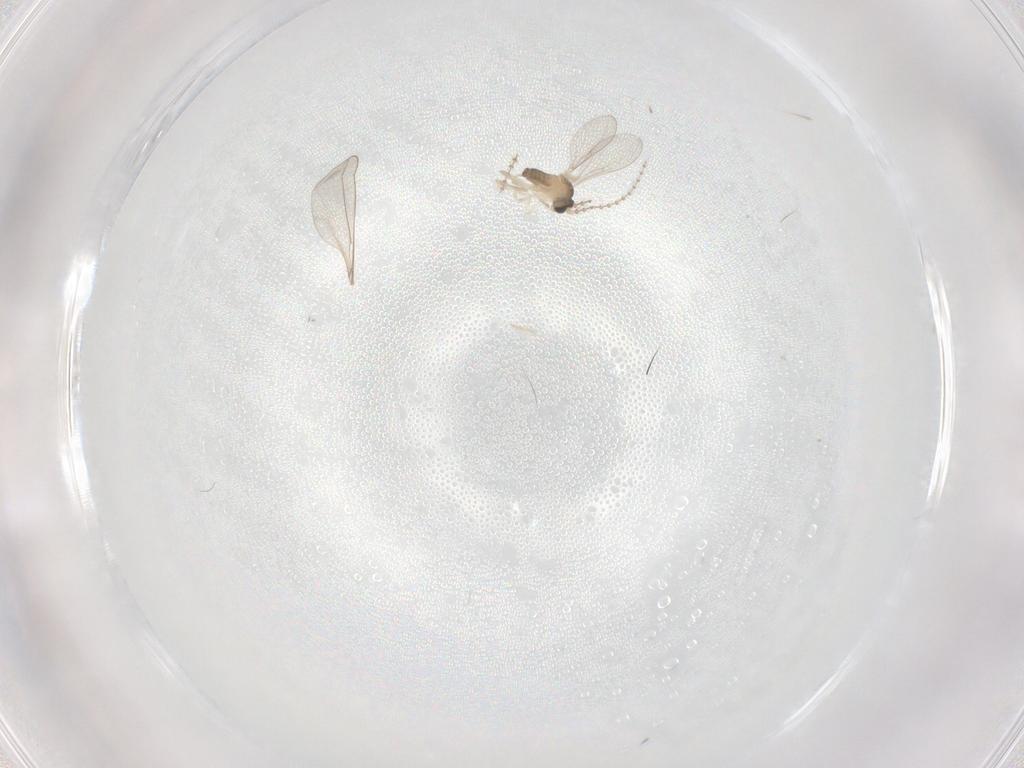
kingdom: Animalia
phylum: Arthropoda
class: Insecta
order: Diptera
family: Cecidomyiidae
